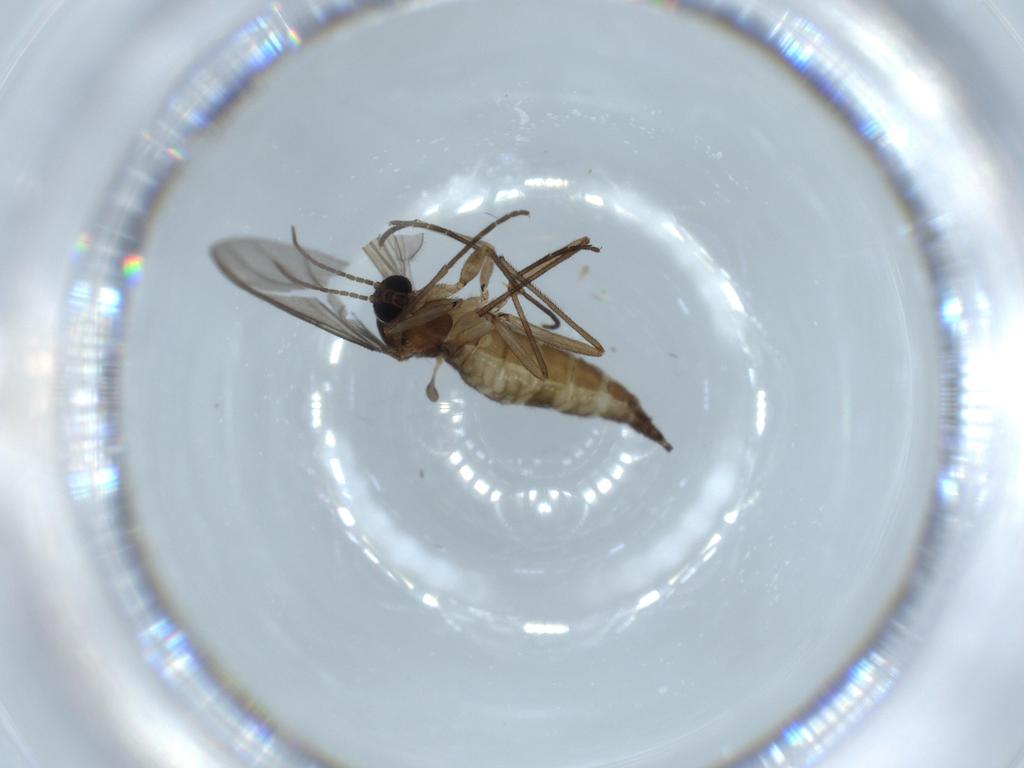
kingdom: Animalia
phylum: Arthropoda
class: Insecta
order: Diptera
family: Sciaridae
